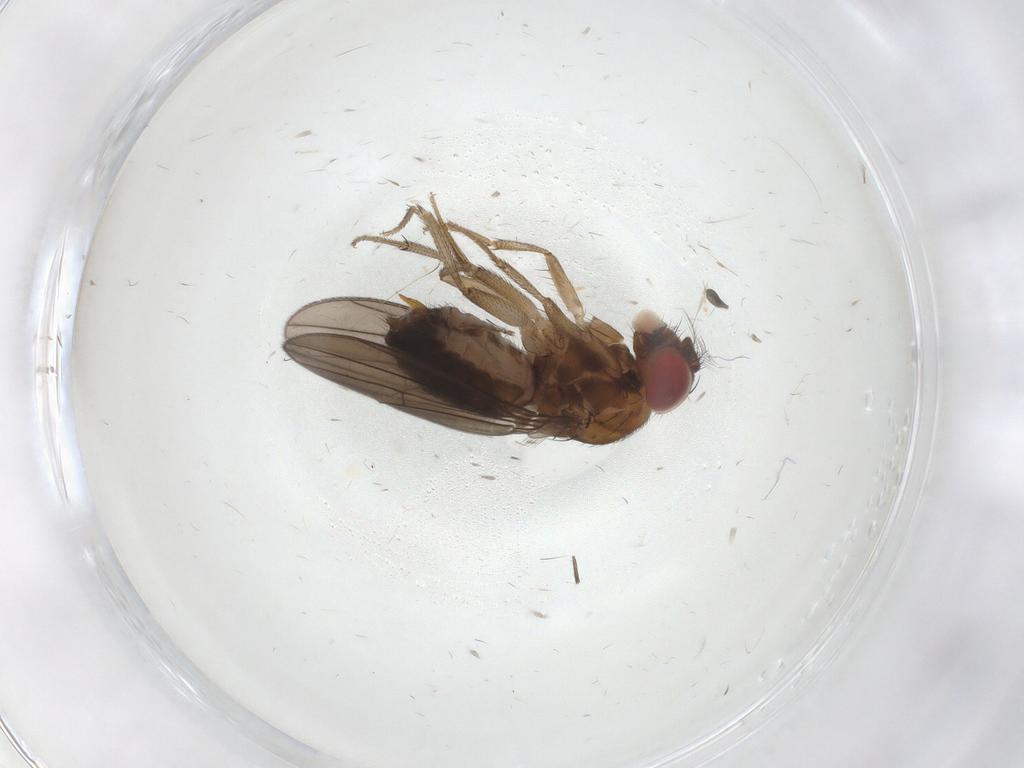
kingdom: Animalia
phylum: Arthropoda
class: Insecta
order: Diptera
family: Drosophilidae
